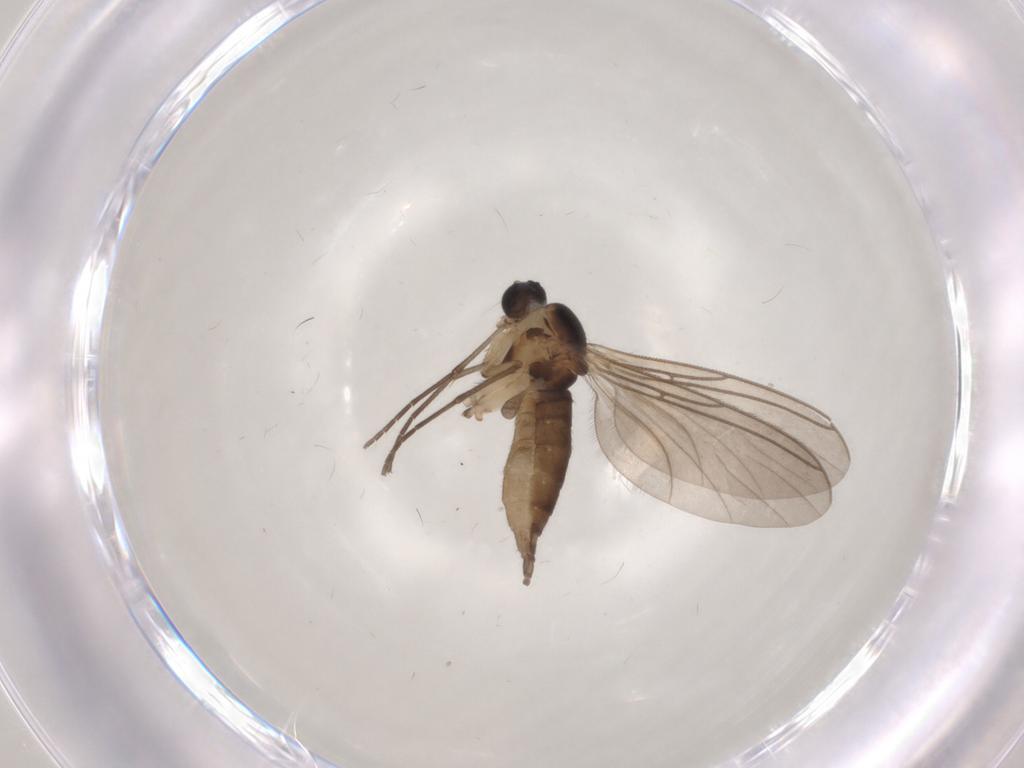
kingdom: Animalia
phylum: Arthropoda
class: Insecta
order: Diptera
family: Sciaridae
